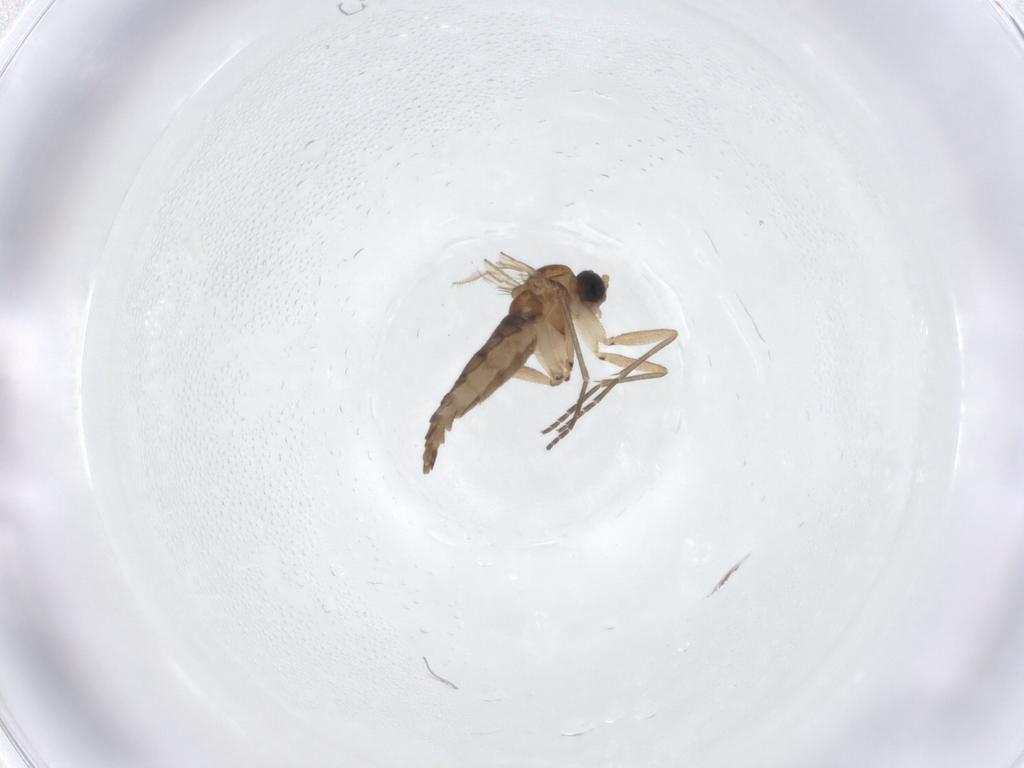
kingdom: Animalia
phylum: Arthropoda
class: Insecta
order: Diptera
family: Sciaridae
